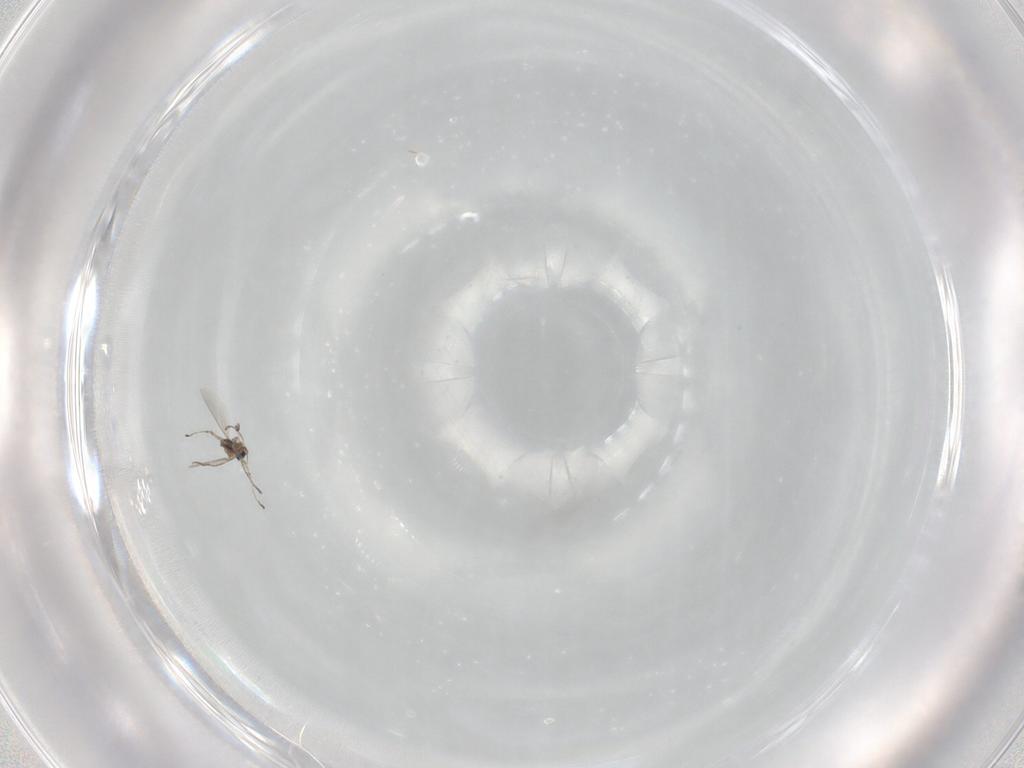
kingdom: Animalia
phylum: Arthropoda
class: Insecta
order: Diptera
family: Cecidomyiidae
